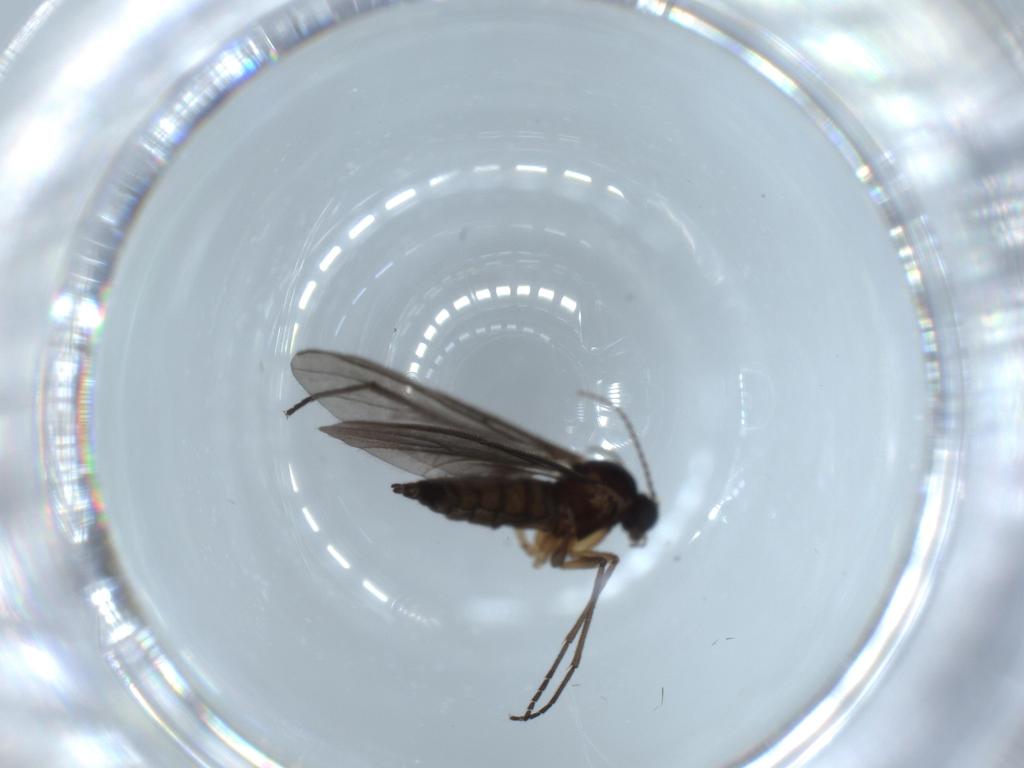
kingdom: Animalia
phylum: Arthropoda
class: Insecta
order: Diptera
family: Sciaridae
